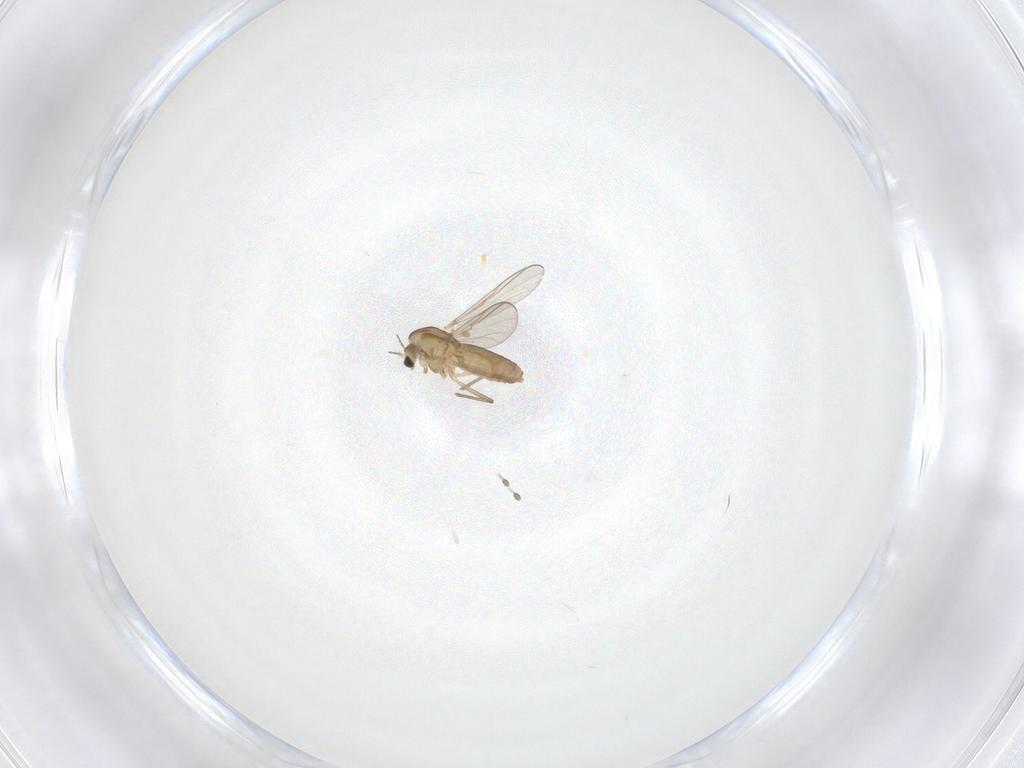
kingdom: Animalia
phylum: Arthropoda
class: Insecta
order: Diptera
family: Chironomidae
